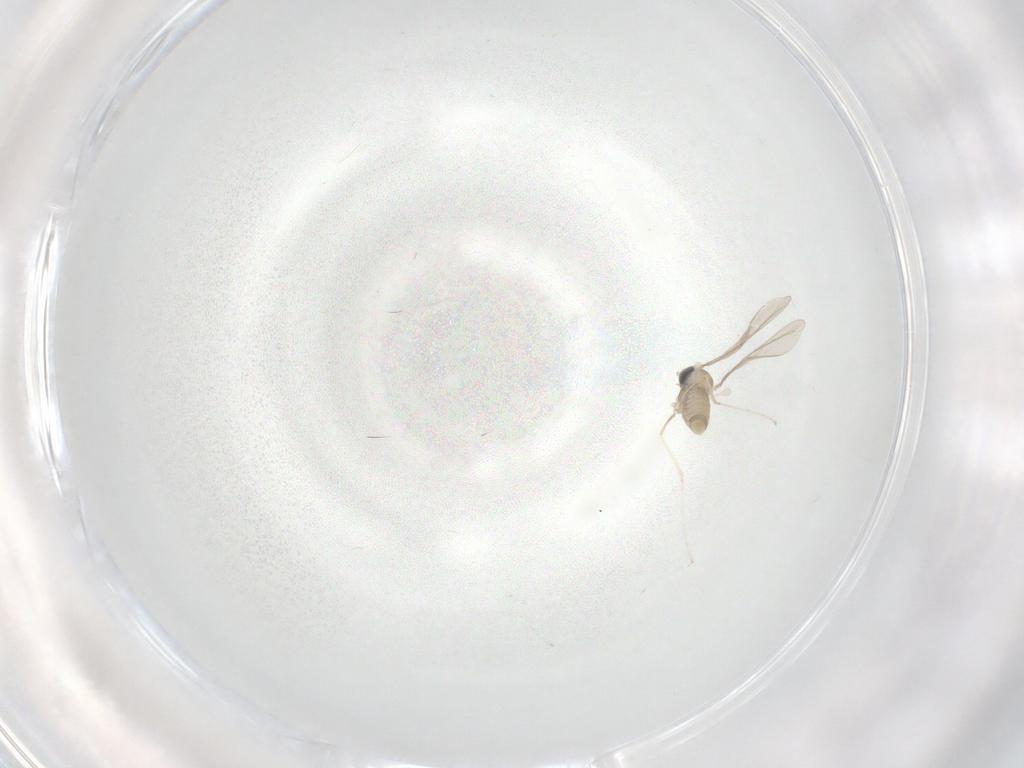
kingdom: Animalia
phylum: Arthropoda
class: Insecta
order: Diptera
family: Cecidomyiidae
